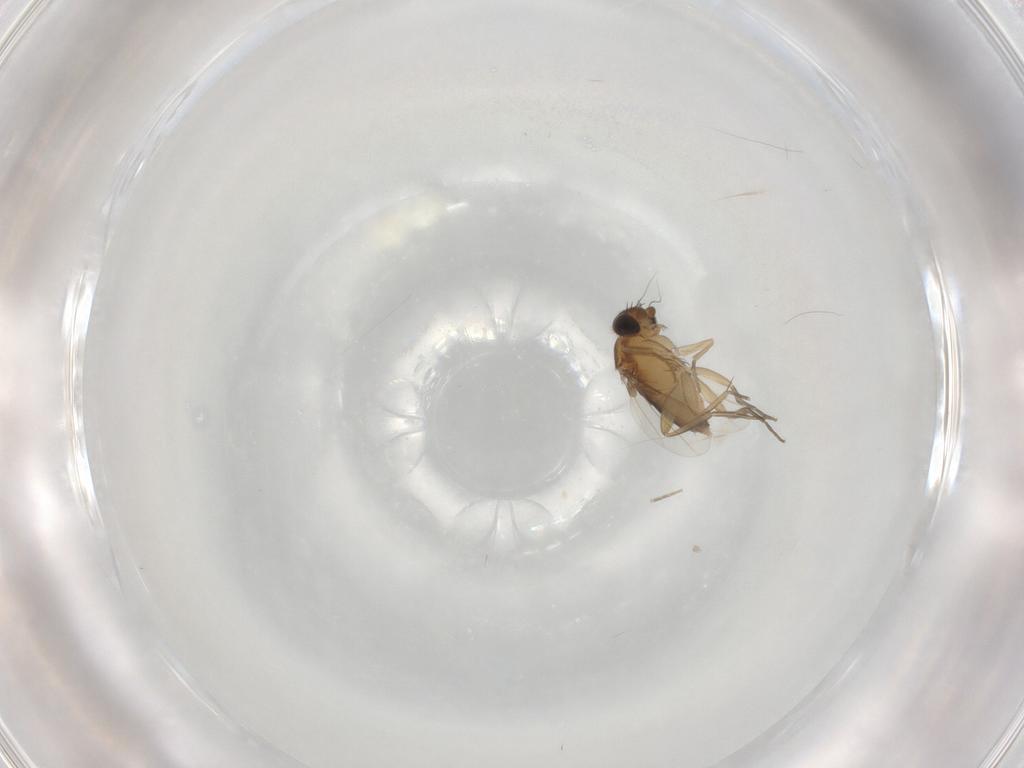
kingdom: Animalia
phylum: Arthropoda
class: Insecta
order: Diptera
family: Phoridae
